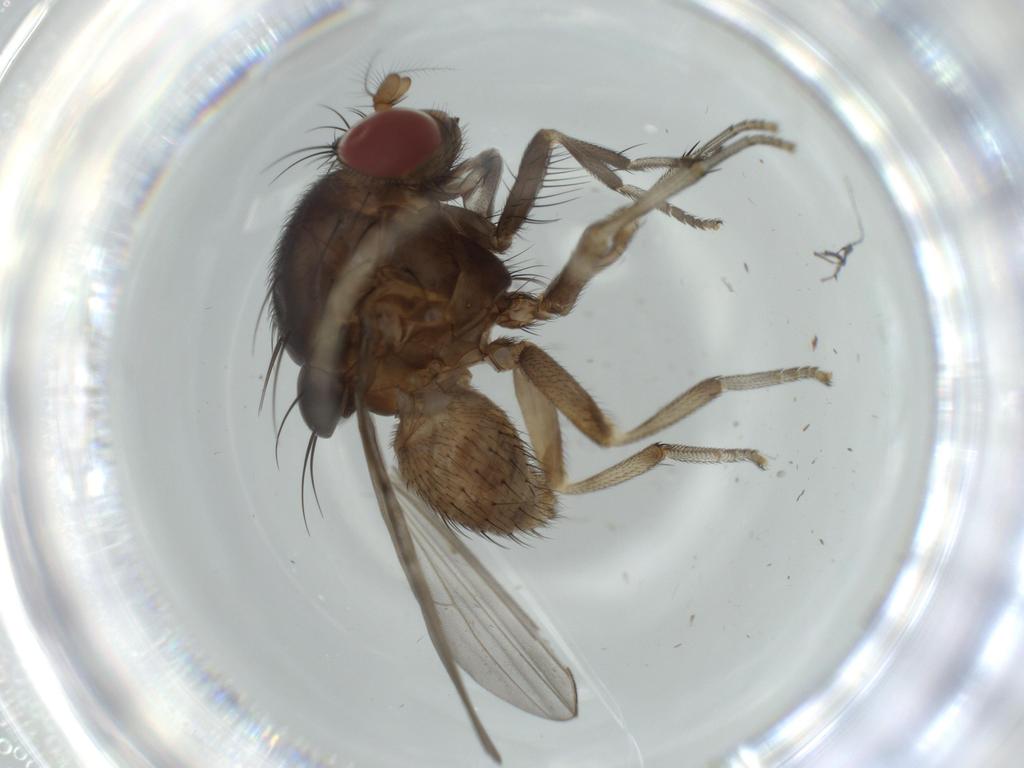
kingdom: Animalia
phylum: Arthropoda
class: Insecta
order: Diptera
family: Cecidomyiidae
